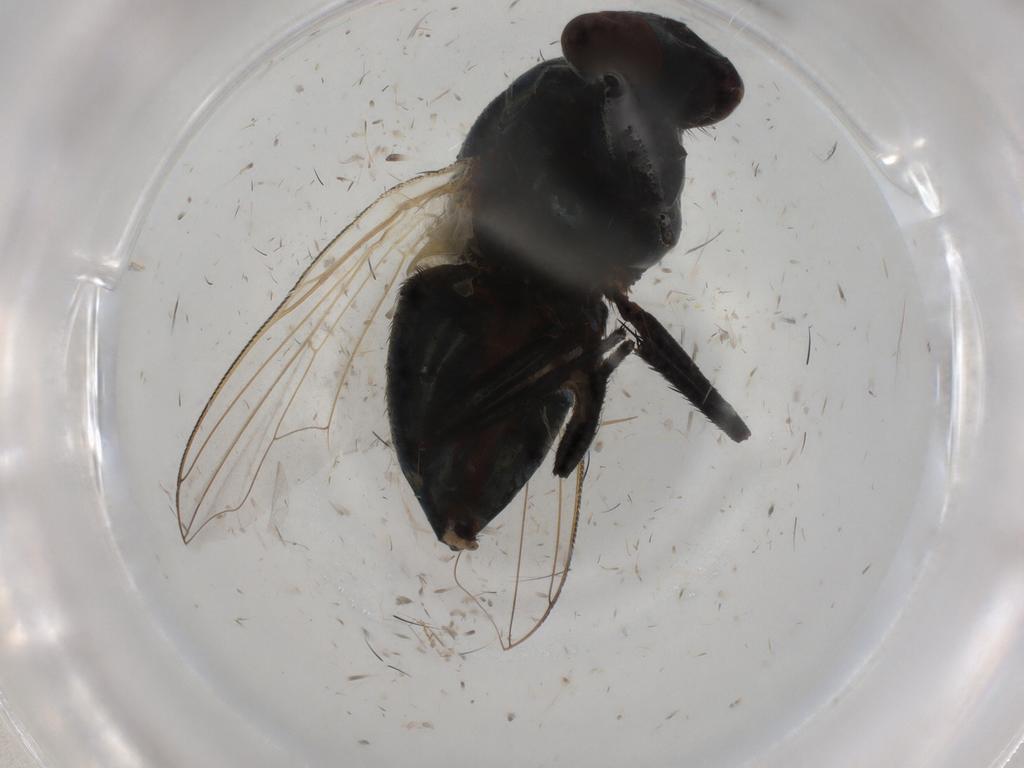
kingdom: Animalia
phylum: Arthropoda
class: Insecta
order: Diptera
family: Muscidae
